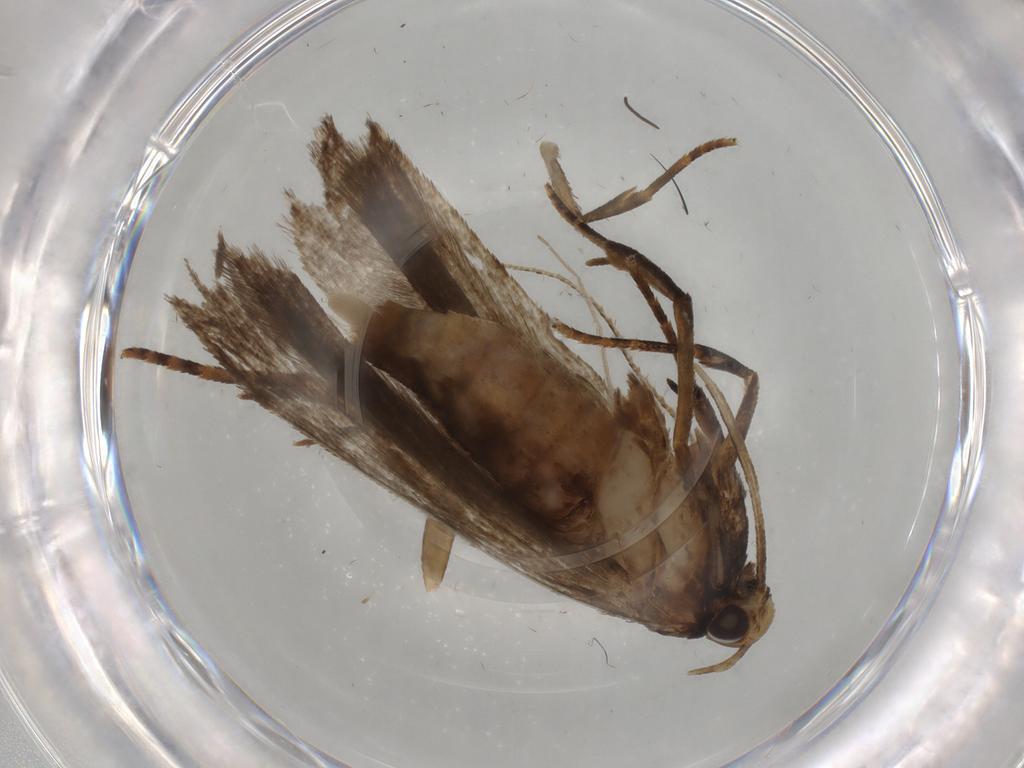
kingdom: Animalia
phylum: Arthropoda
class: Insecta
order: Lepidoptera
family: Cosmopterigidae
